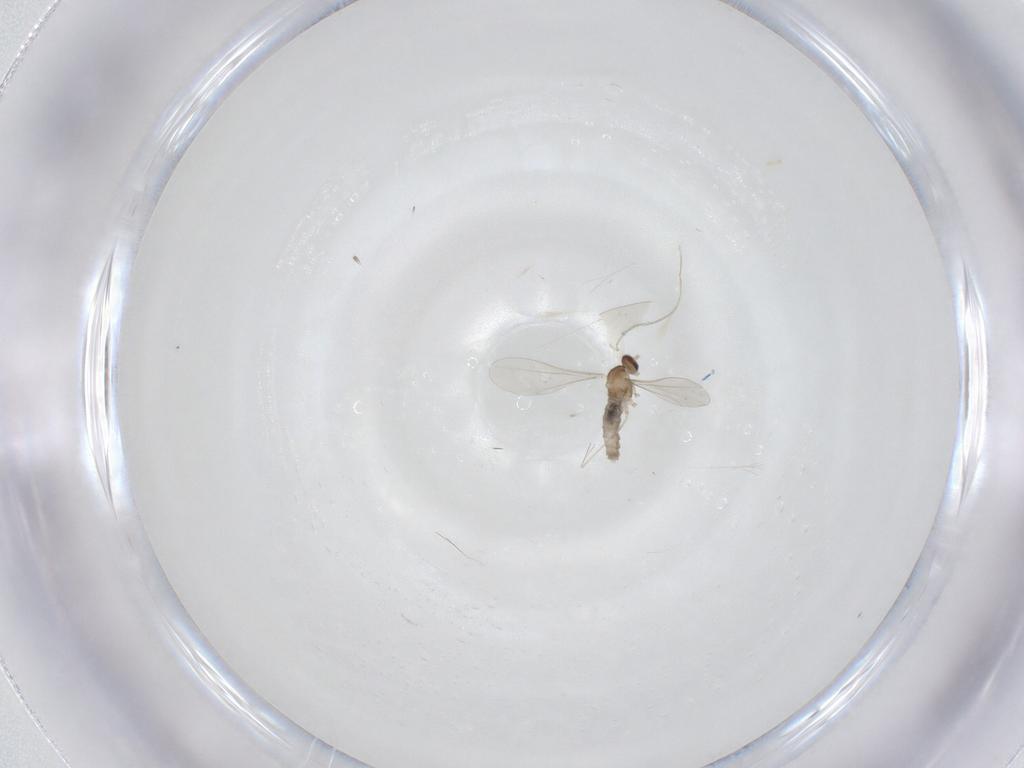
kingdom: Animalia
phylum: Arthropoda
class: Insecta
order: Diptera
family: Cecidomyiidae
